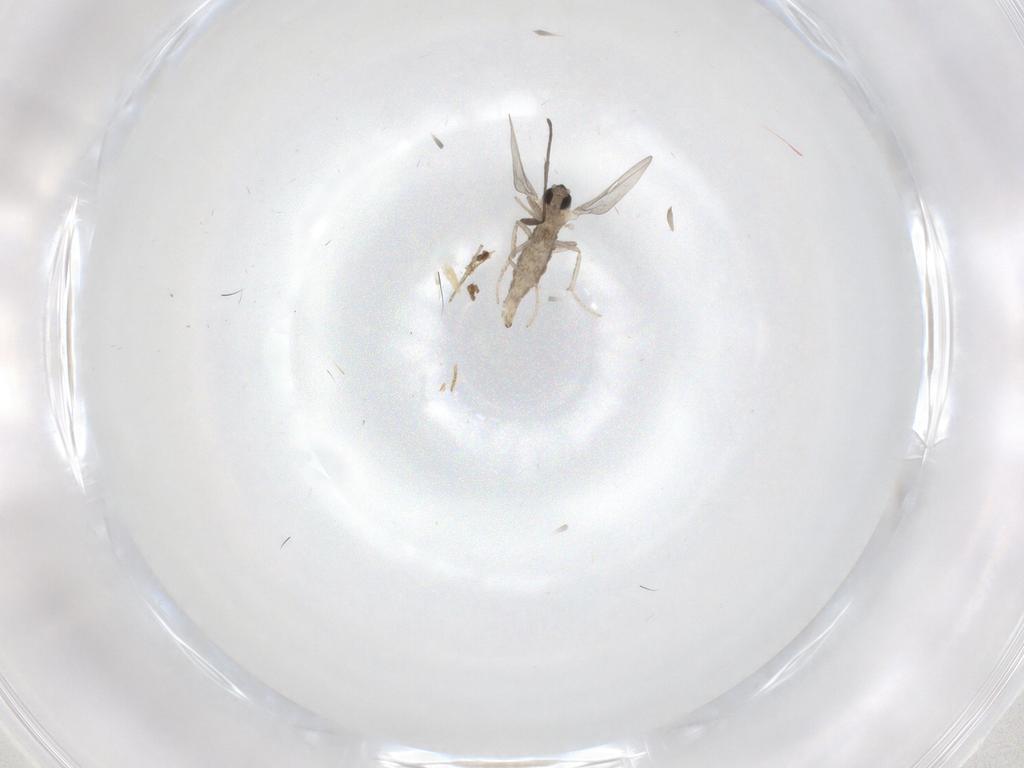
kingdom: Animalia
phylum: Arthropoda
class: Insecta
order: Diptera
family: Cecidomyiidae
